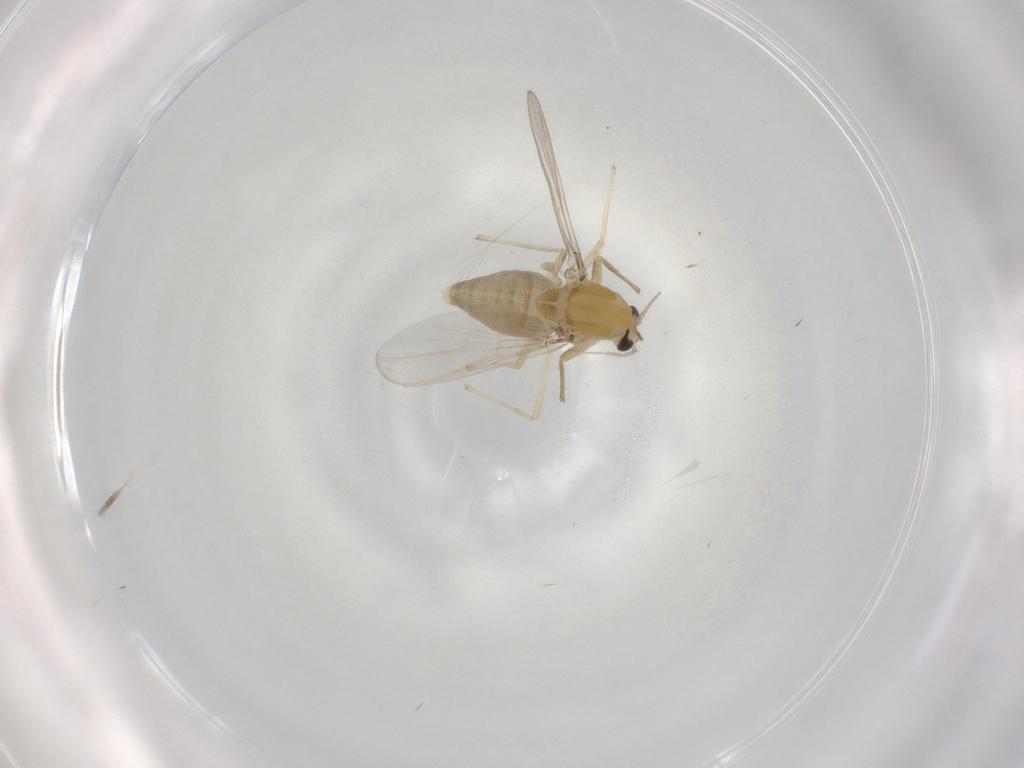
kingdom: Animalia
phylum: Arthropoda
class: Insecta
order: Diptera
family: Chironomidae
